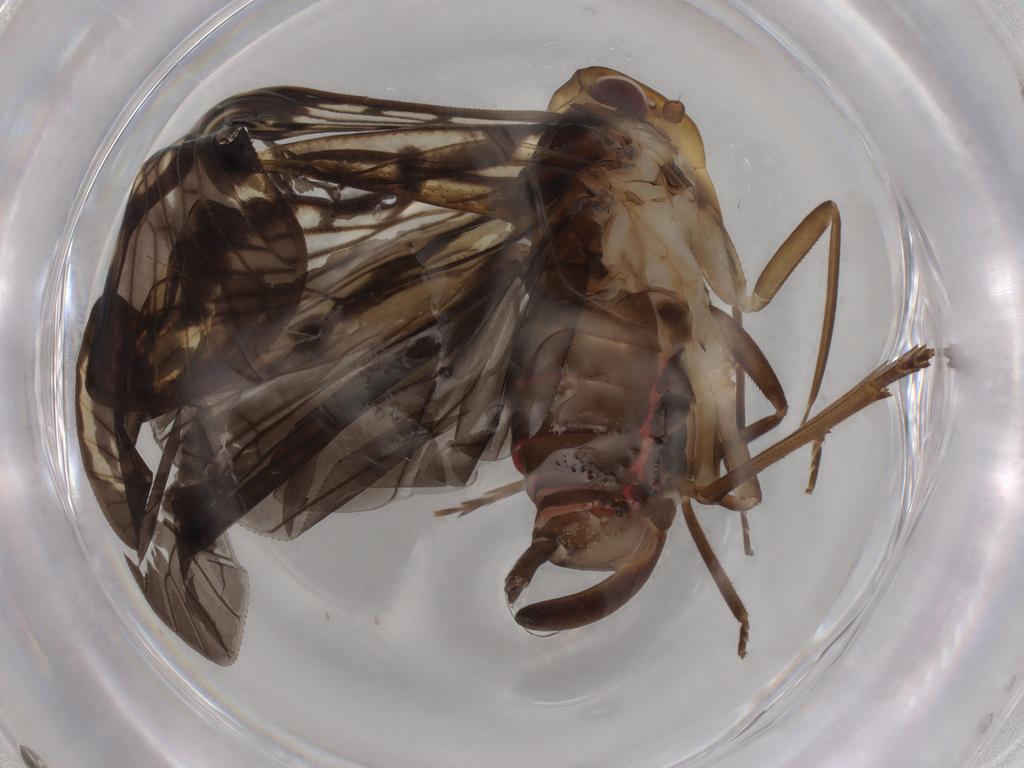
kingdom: Animalia
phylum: Arthropoda
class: Insecta
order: Hemiptera
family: Cixiidae
